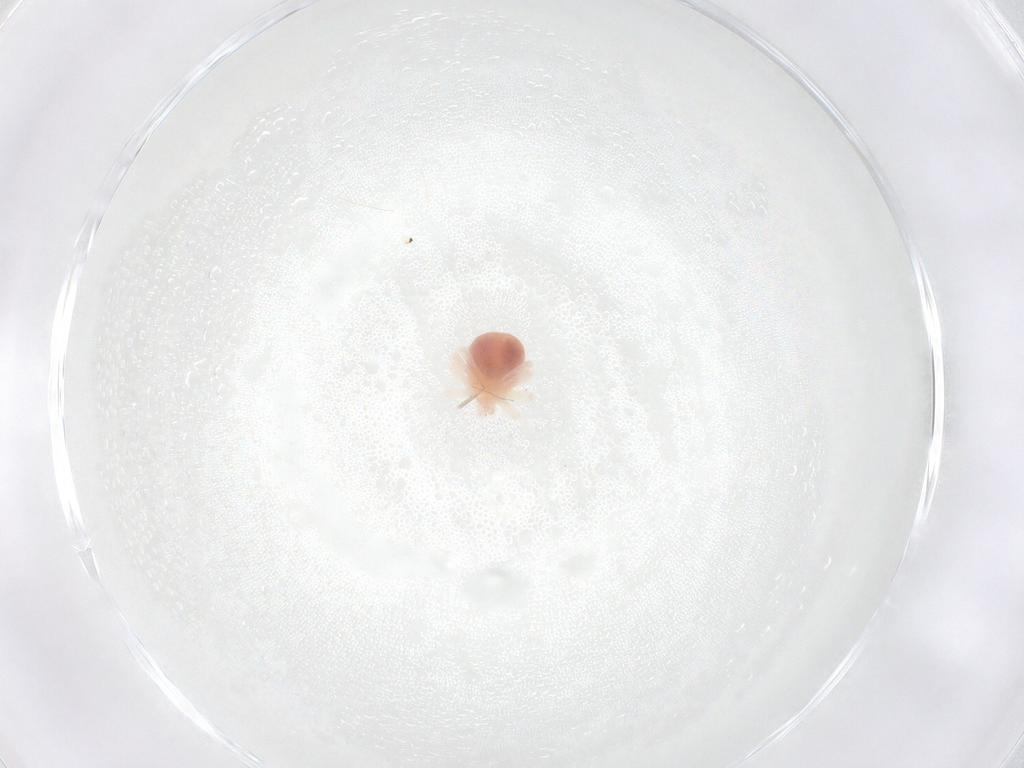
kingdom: Animalia
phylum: Arthropoda
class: Arachnida
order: Trombidiformes
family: Anystidae
